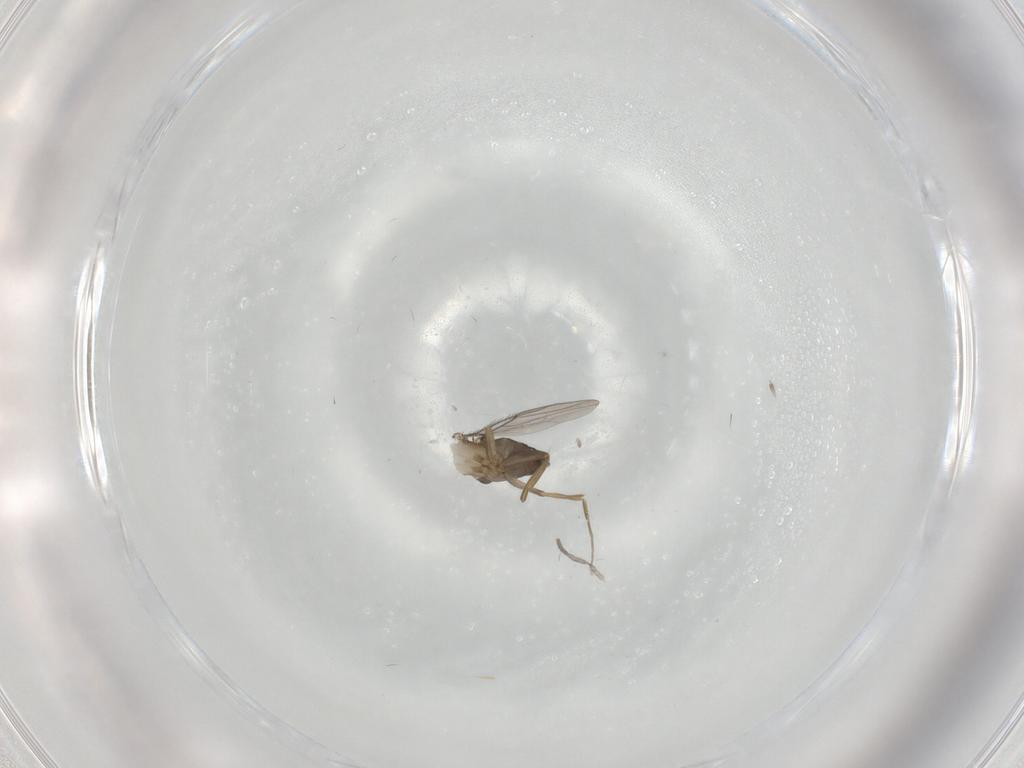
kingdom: Animalia
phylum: Arthropoda
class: Insecta
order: Diptera
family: Phoridae
